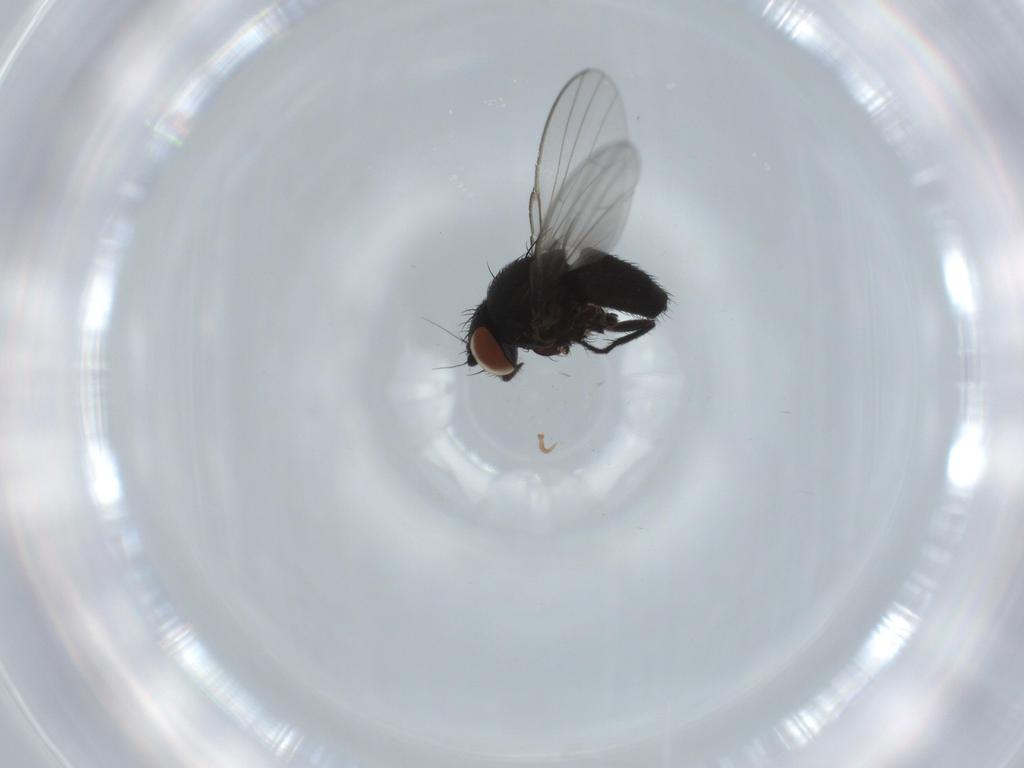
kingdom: Animalia
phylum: Arthropoda
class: Insecta
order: Diptera
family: Milichiidae
